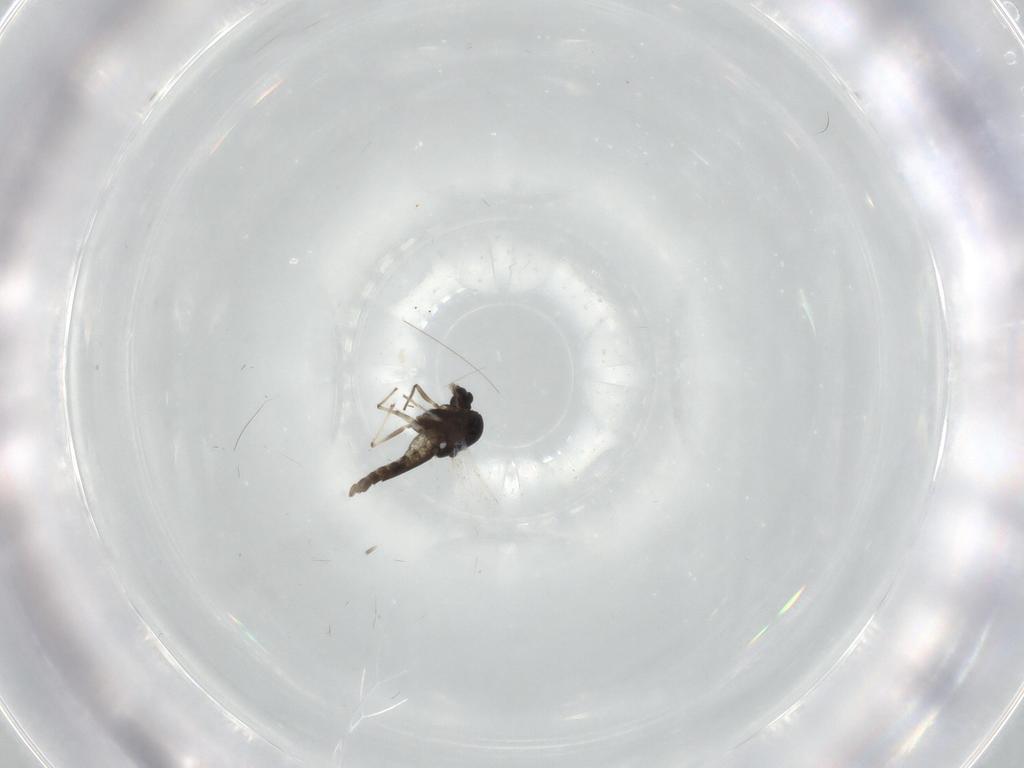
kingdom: Animalia
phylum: Arthropoda
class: Insecta
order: Diptera
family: Chironomidae
